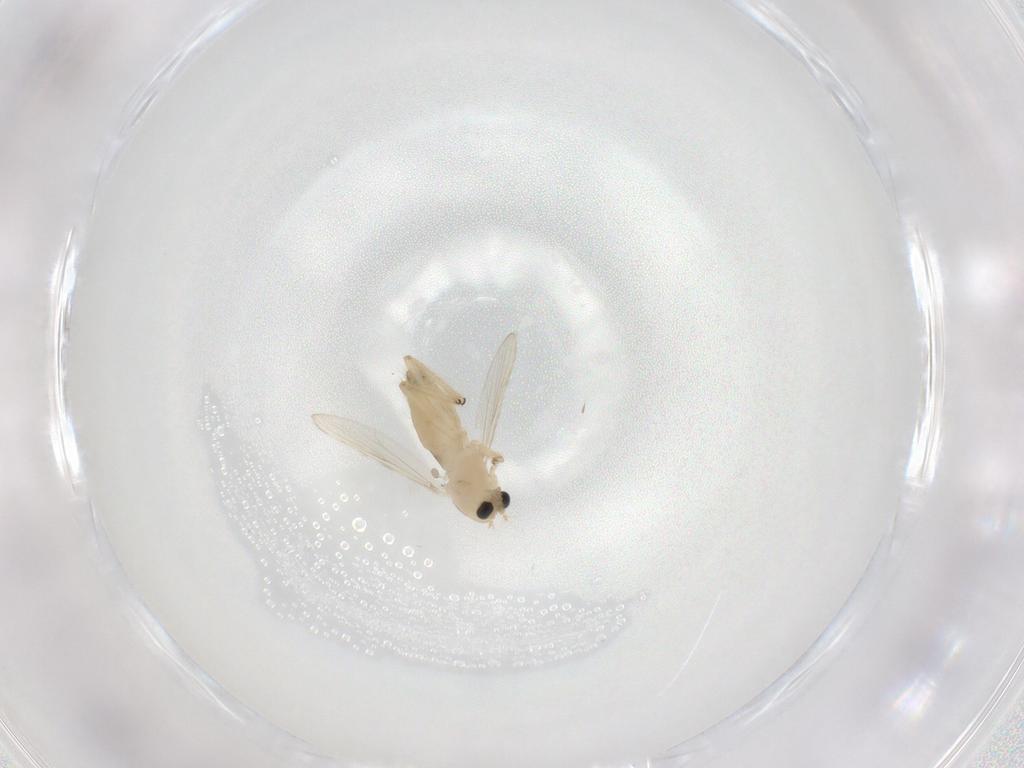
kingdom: Animalia
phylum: Arthropoda
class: Insecta
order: Diptera
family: Chironomidae
